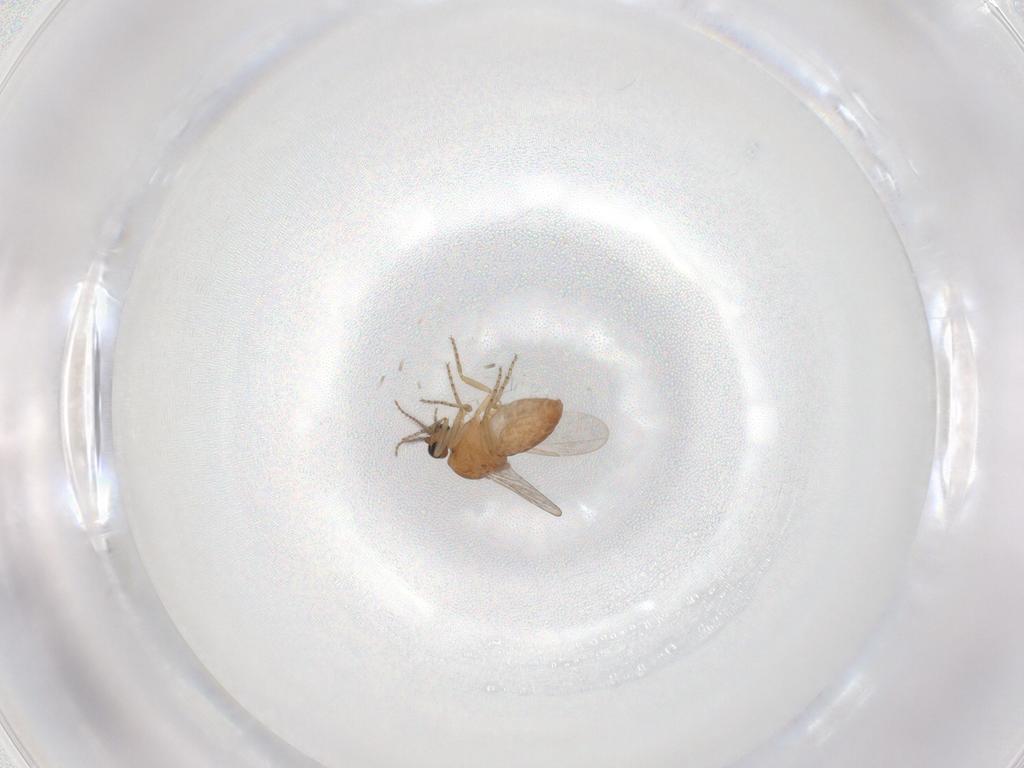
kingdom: Animalia
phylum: Arthropoda
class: Insecta
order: Diptera
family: Ceratopogonidae
